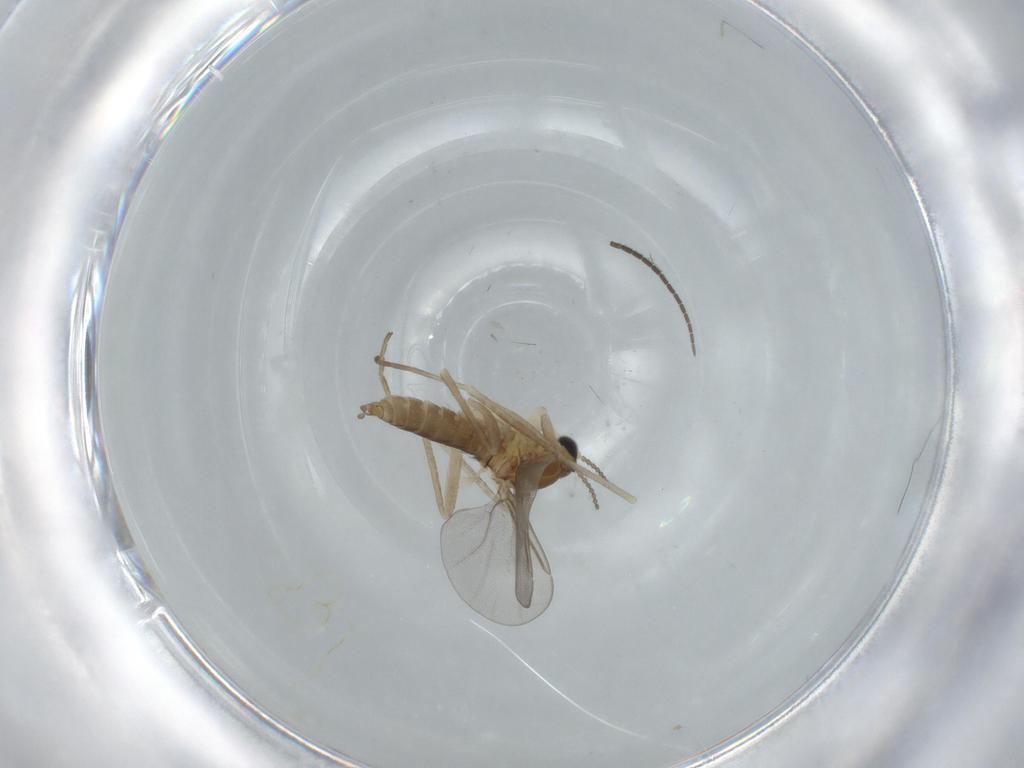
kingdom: Animalia
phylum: Arthropoda
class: Insecta
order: Diptera
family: Cecidomyiidae
